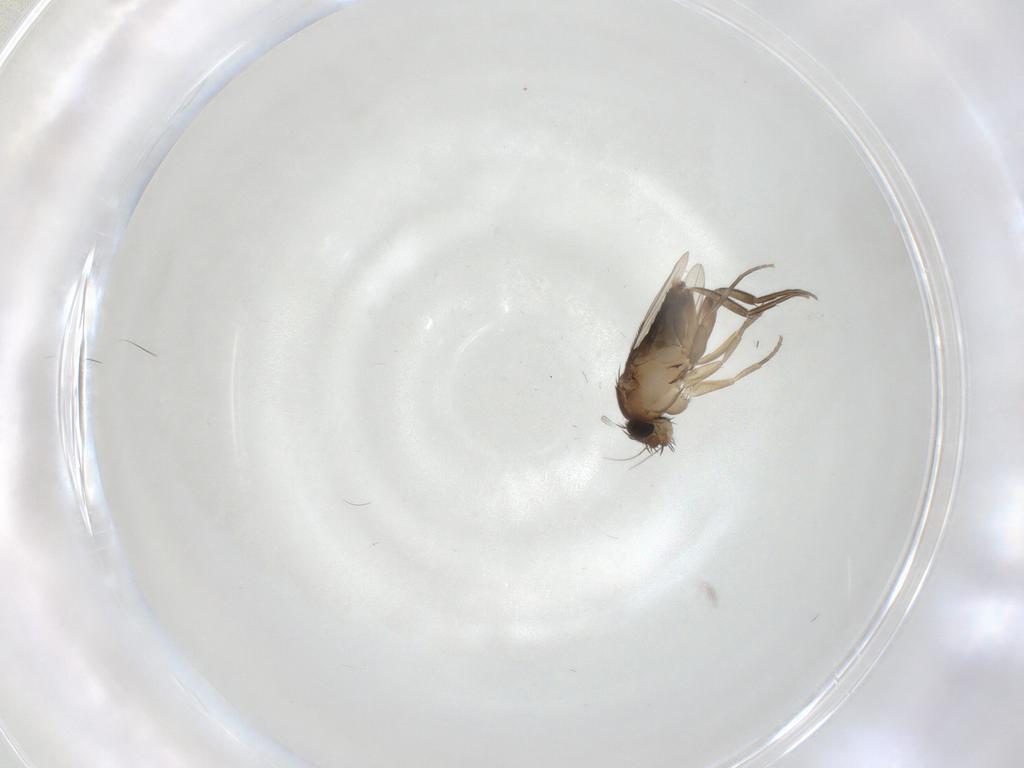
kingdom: Animalia
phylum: Arthropoda
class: Insecta
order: Diptera
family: Phoridae
